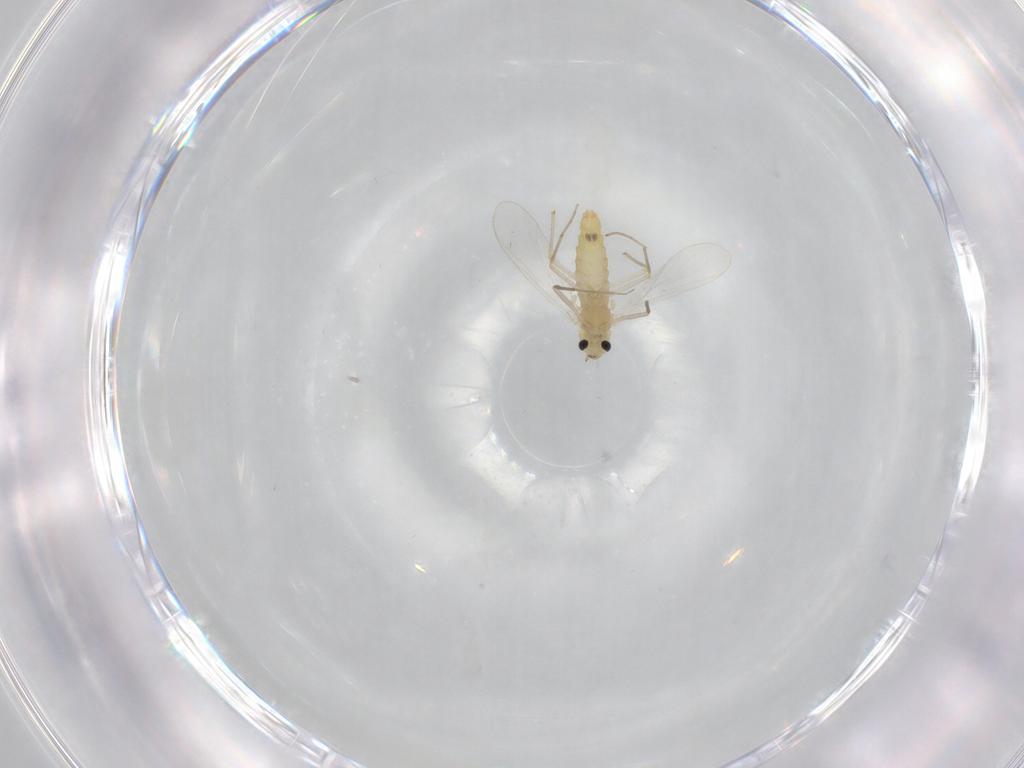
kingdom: Animalia
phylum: Arthropoda
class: Insecta
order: Diptera
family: Chironomidae
